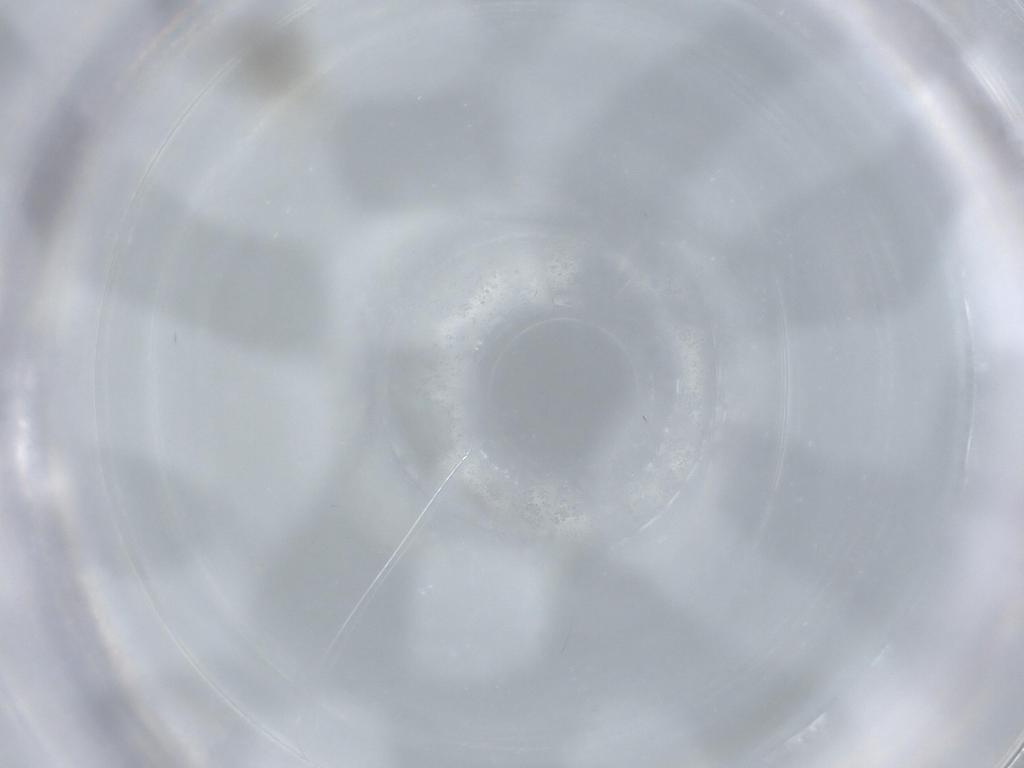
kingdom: Animalia
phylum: Arthropoda
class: Insecta
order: Diptera
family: Cecidomyiidae
